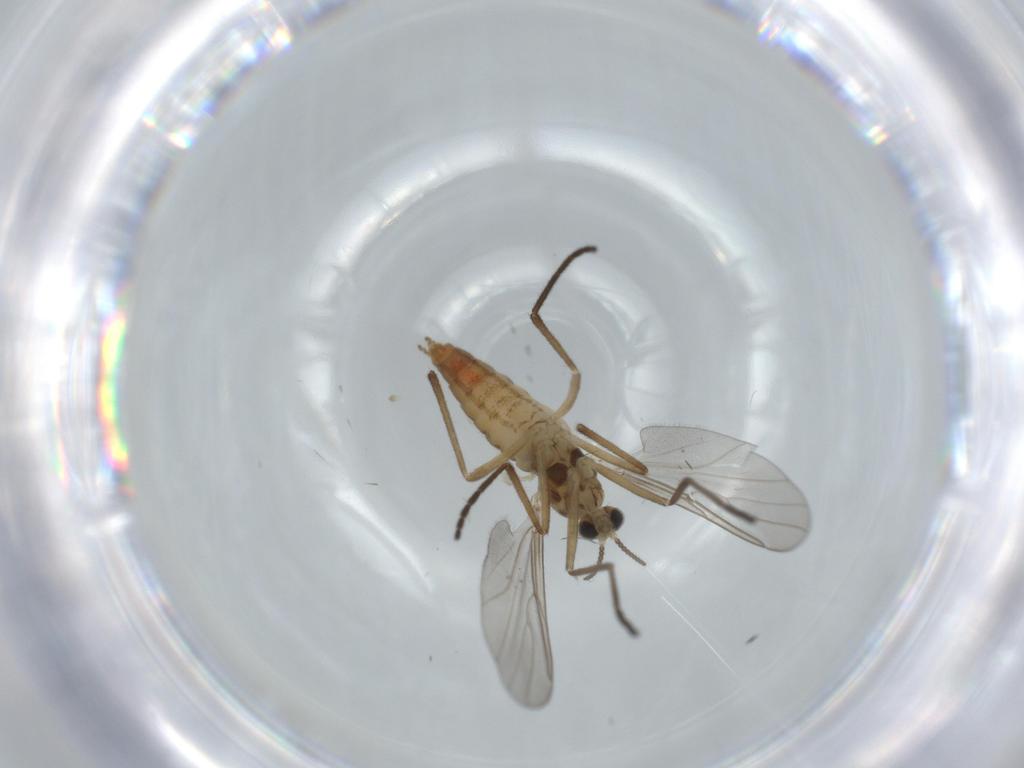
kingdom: Animalia
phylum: Arthropoda
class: Insecta
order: Diptera
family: Cecidomyiidae
